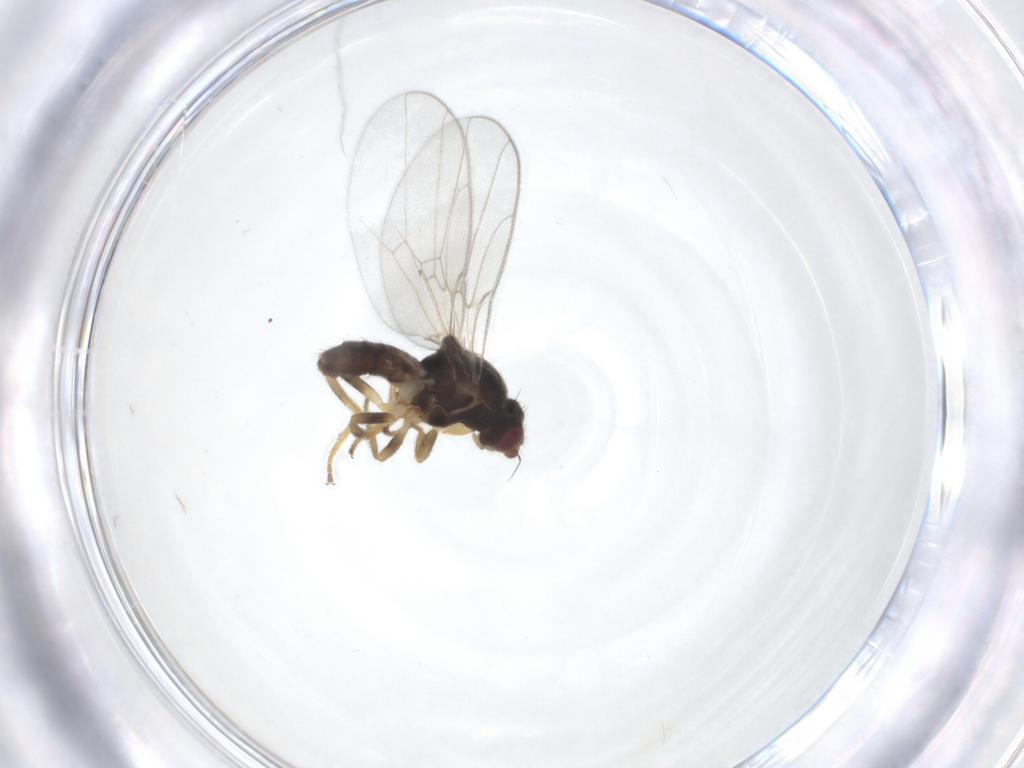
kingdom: Animalia
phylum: Arthropoda
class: Insecta
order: Diptera
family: Chloropidae
